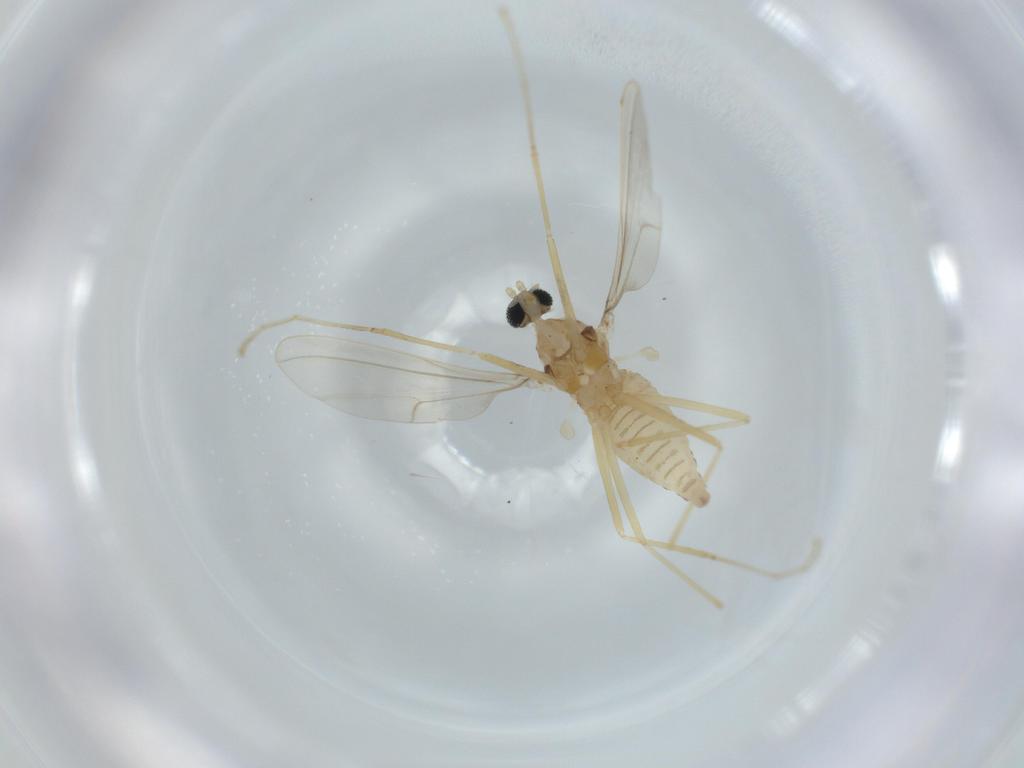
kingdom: Animalia
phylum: Arthropoda
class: Insecta
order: Diptera
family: Cecidomyiidae
